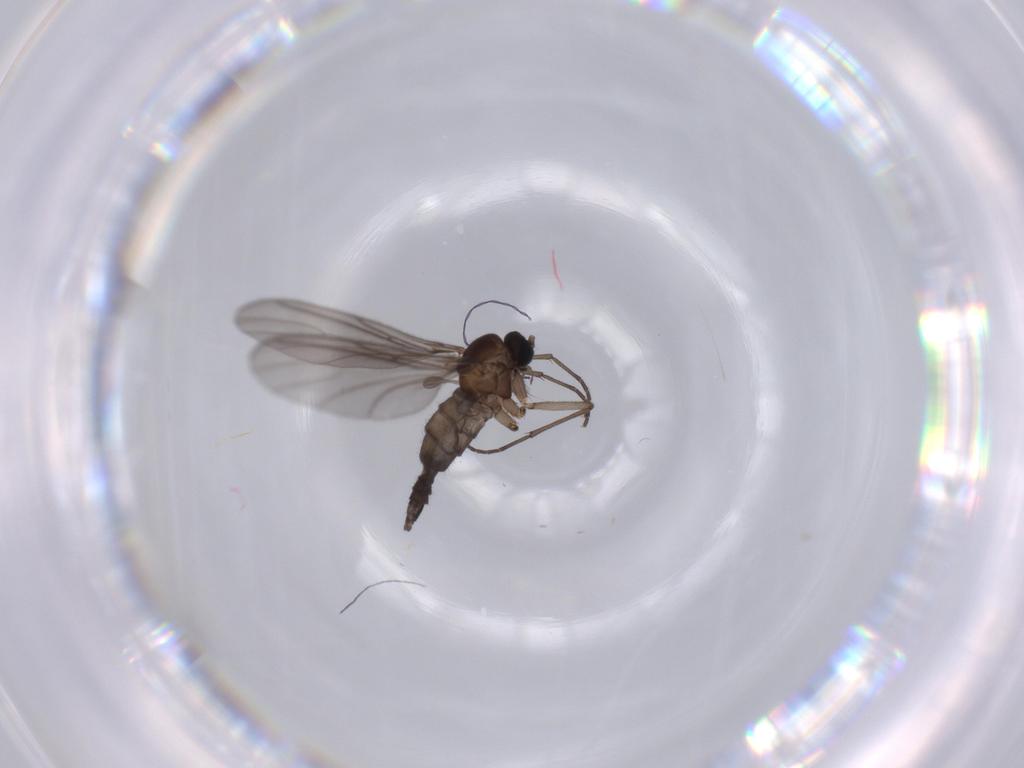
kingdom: Animalia
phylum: Arthropoda
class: Insecta
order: Diptera
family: Sciaridae
